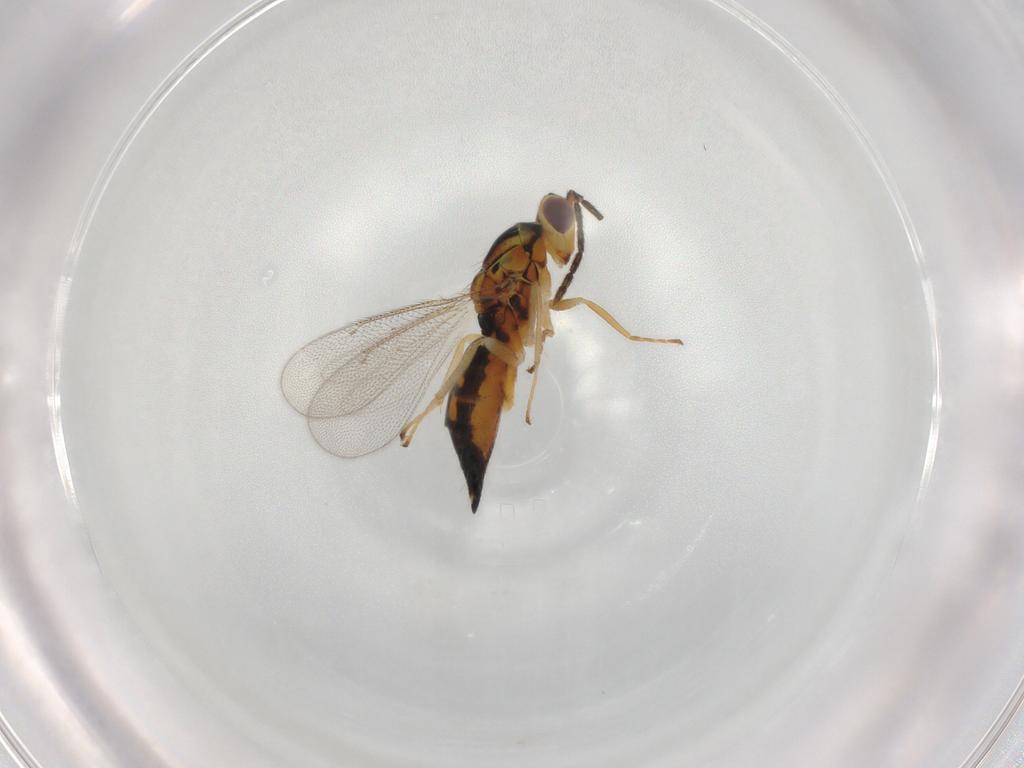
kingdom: Animalia
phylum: Arthropoda
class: Insecta
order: Hymenoptera
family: Eulophidae
